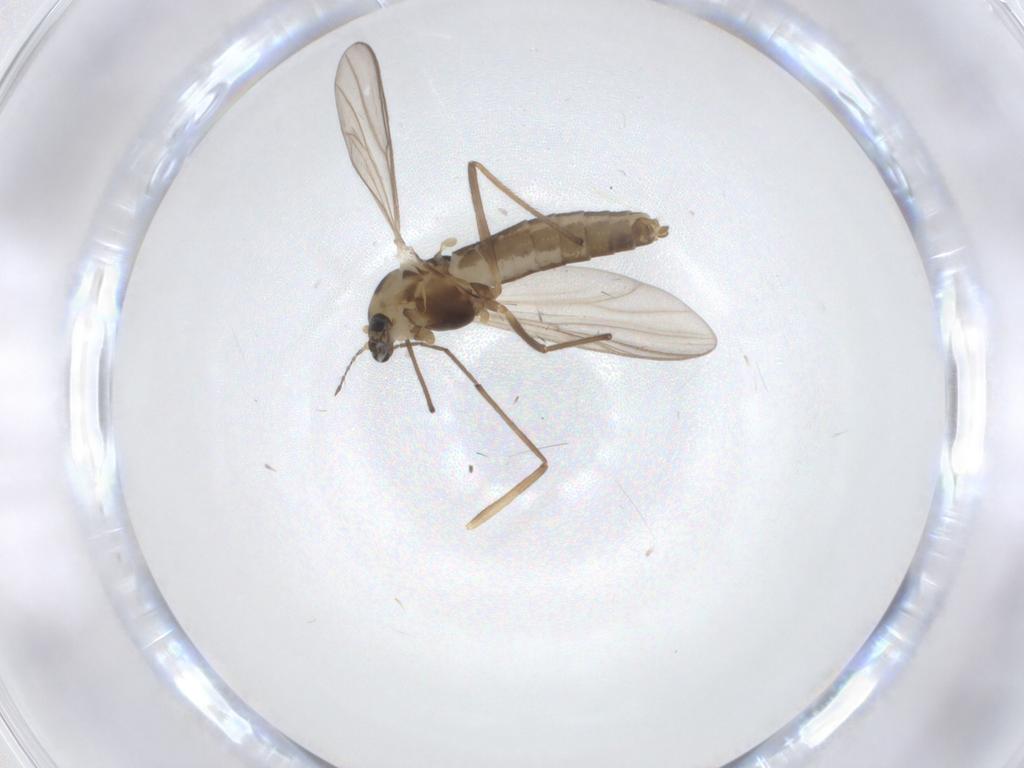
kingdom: Animalia
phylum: Arthropoda
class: Insecta
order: Diptera
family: Chironomidae
